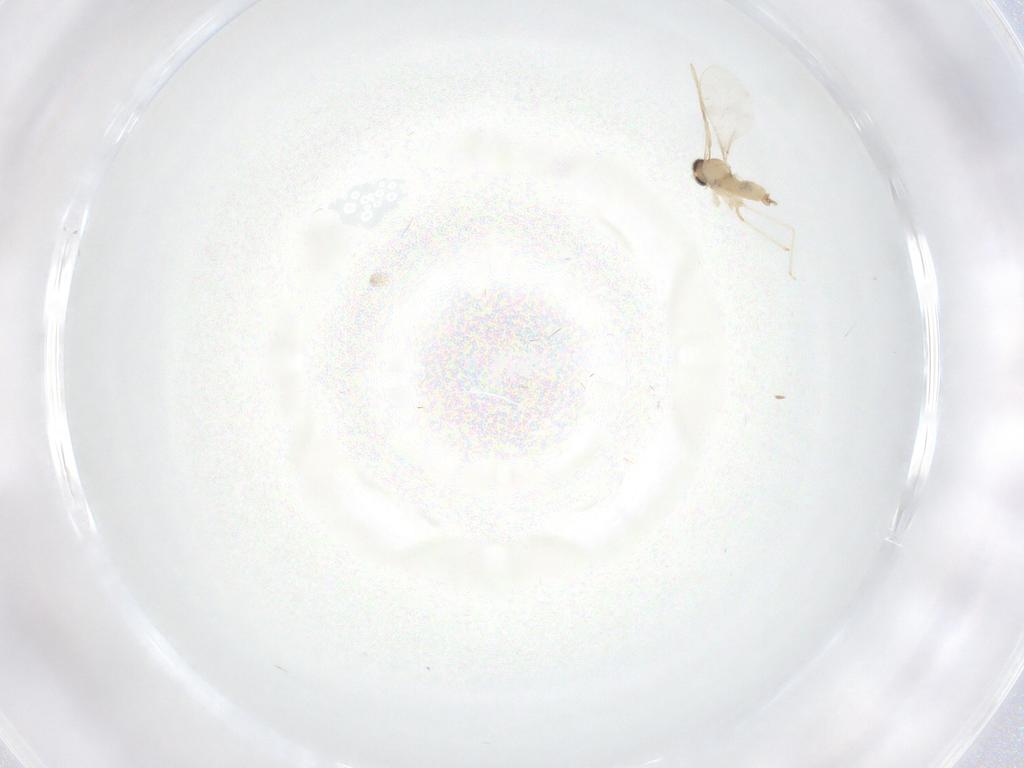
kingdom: Animalia
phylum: Arthropoda
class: Insecta
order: Diptera
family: Cecidomyiidae
